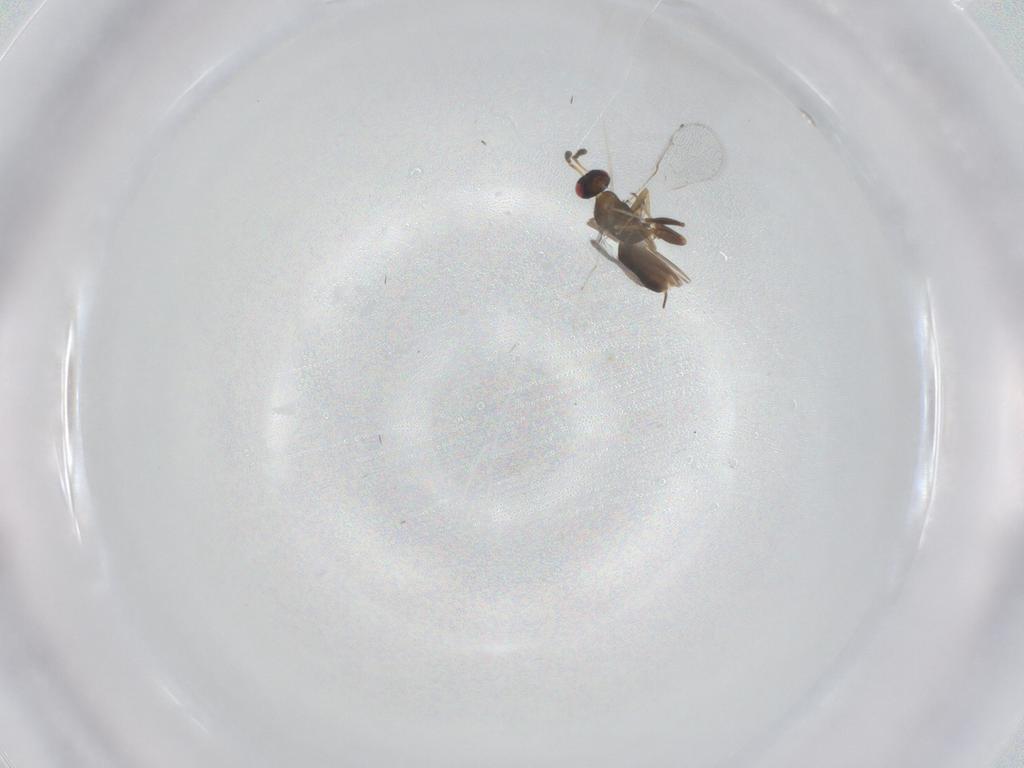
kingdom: Animalia
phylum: Arthropoda
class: Insecta
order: Hymenoptera
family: Torymidae
